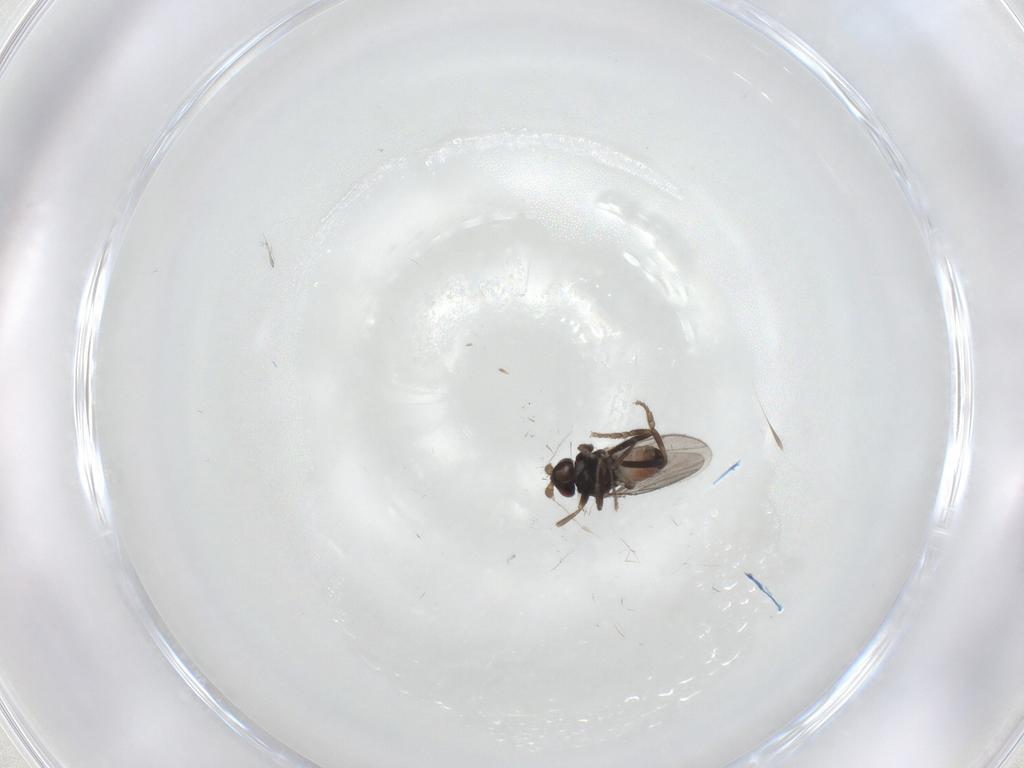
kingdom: Animalia
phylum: Arthropoda
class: Insecta
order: Diptera
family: Sphaeroceridae
